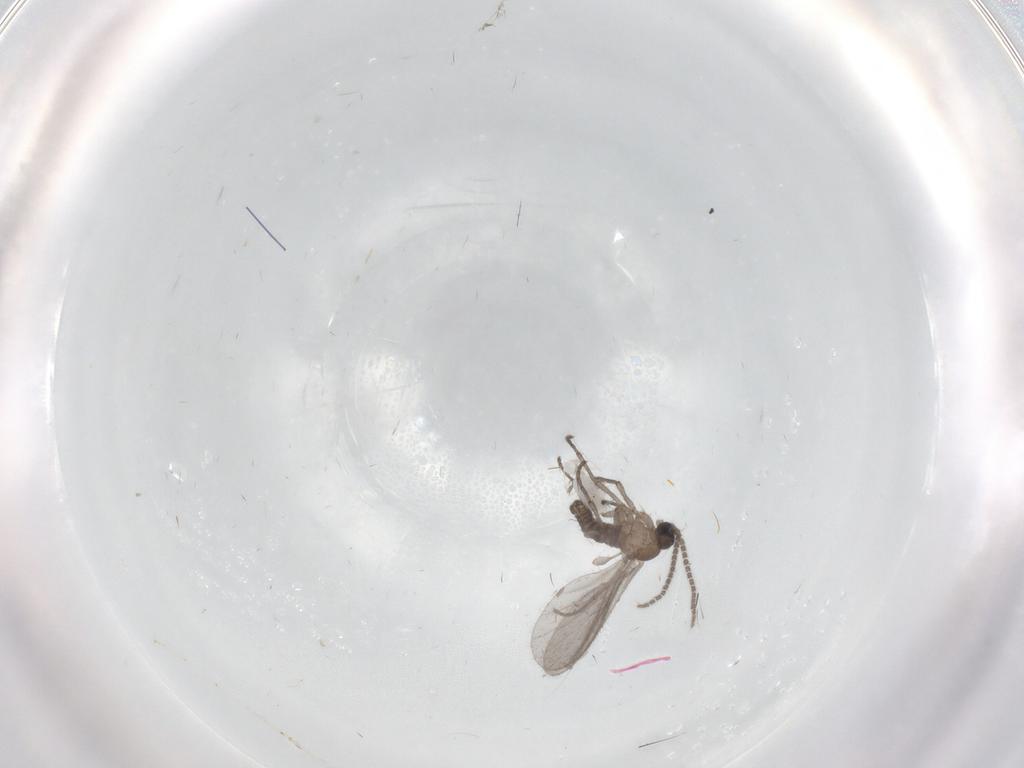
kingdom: Animalia
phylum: Arthropoda
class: Insecta
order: Diptera
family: Sciaridae
